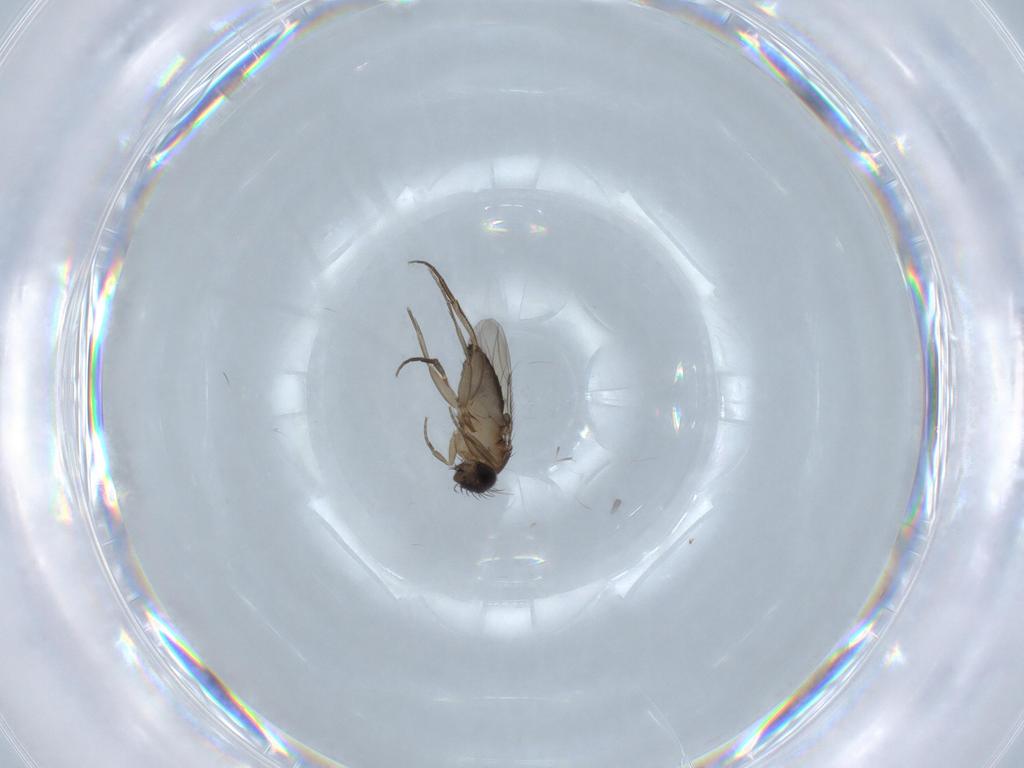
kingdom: Animalia
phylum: Arthropoda
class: Insecta
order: Diptera
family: Phoridae
